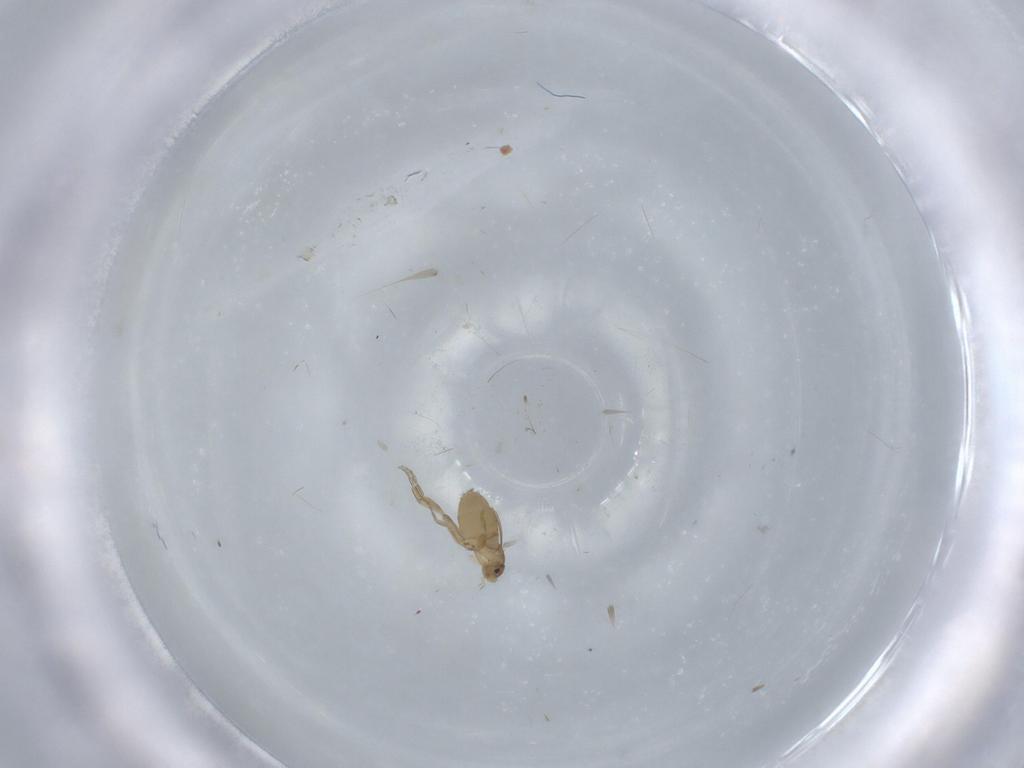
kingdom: Animalia
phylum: Arthropoda
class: Insecta
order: Diptera
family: Phoridae
